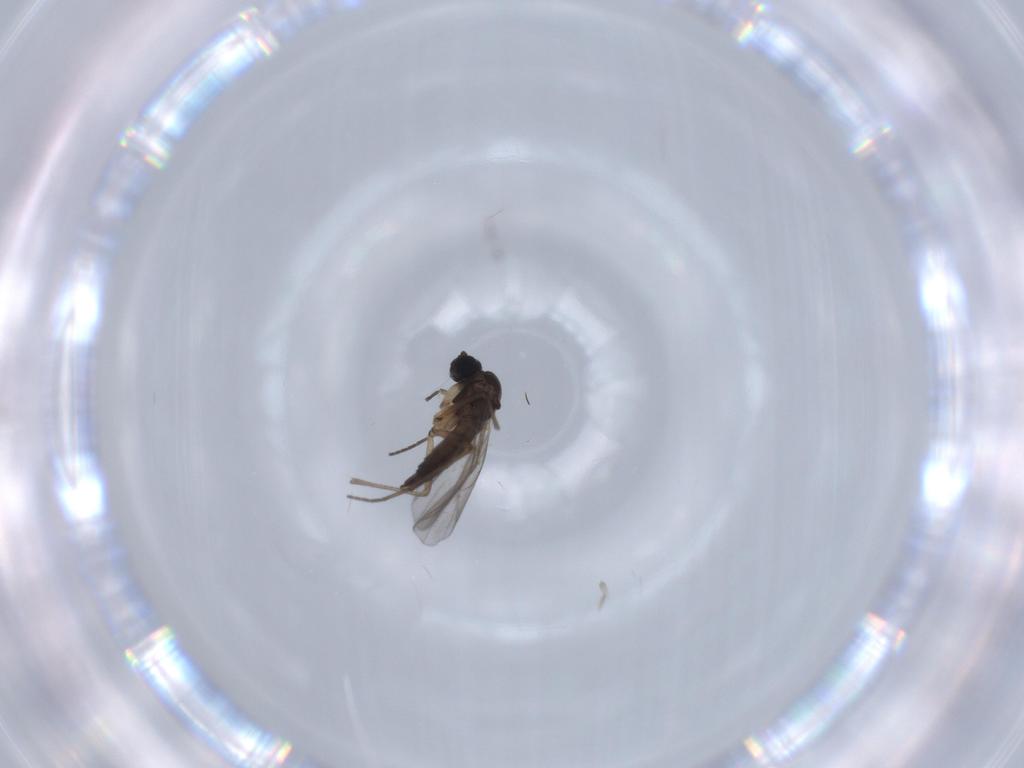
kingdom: Animalia
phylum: Arthropoda
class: Insecta
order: Diptera
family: Sciaridae
